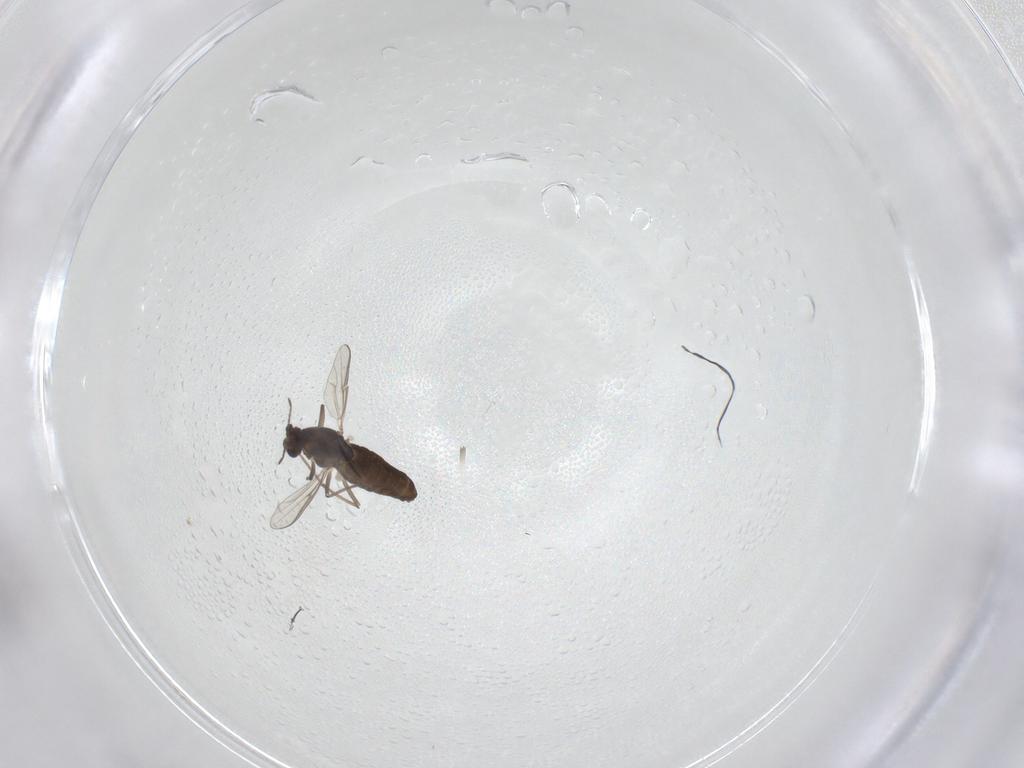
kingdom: Animalia
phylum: Arthropoda
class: Insecta
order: Diptera
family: Chironomidae
